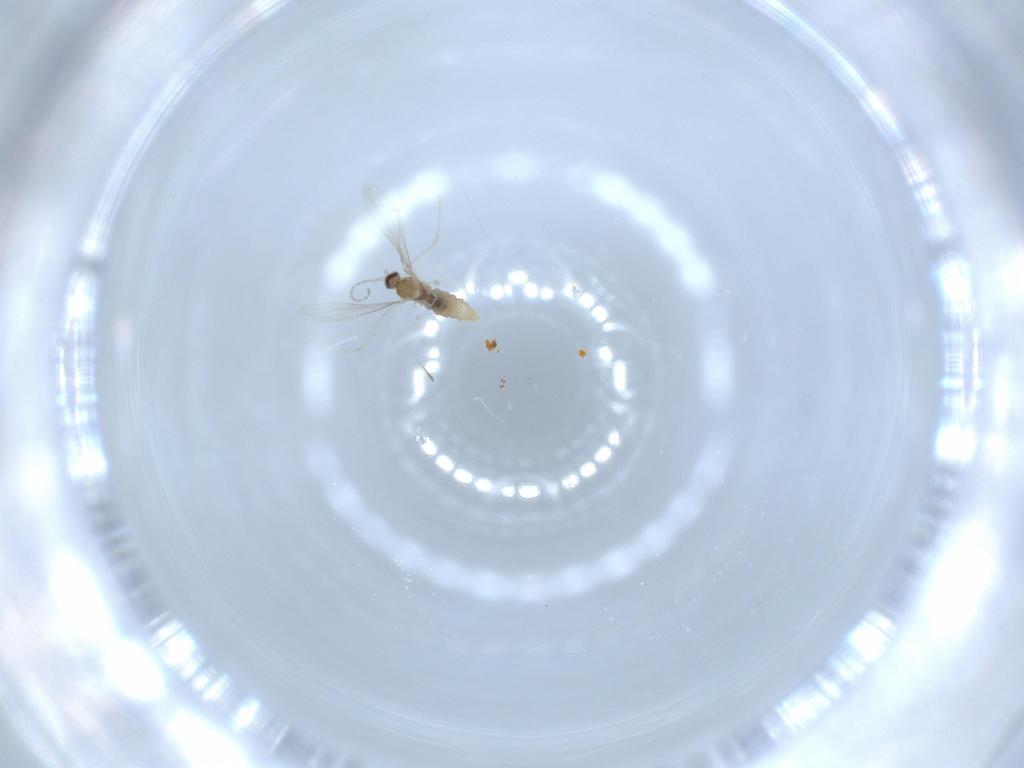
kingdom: Animalia
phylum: Arthropoda
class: Insecta
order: Diptera
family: Cecidomyiidae
